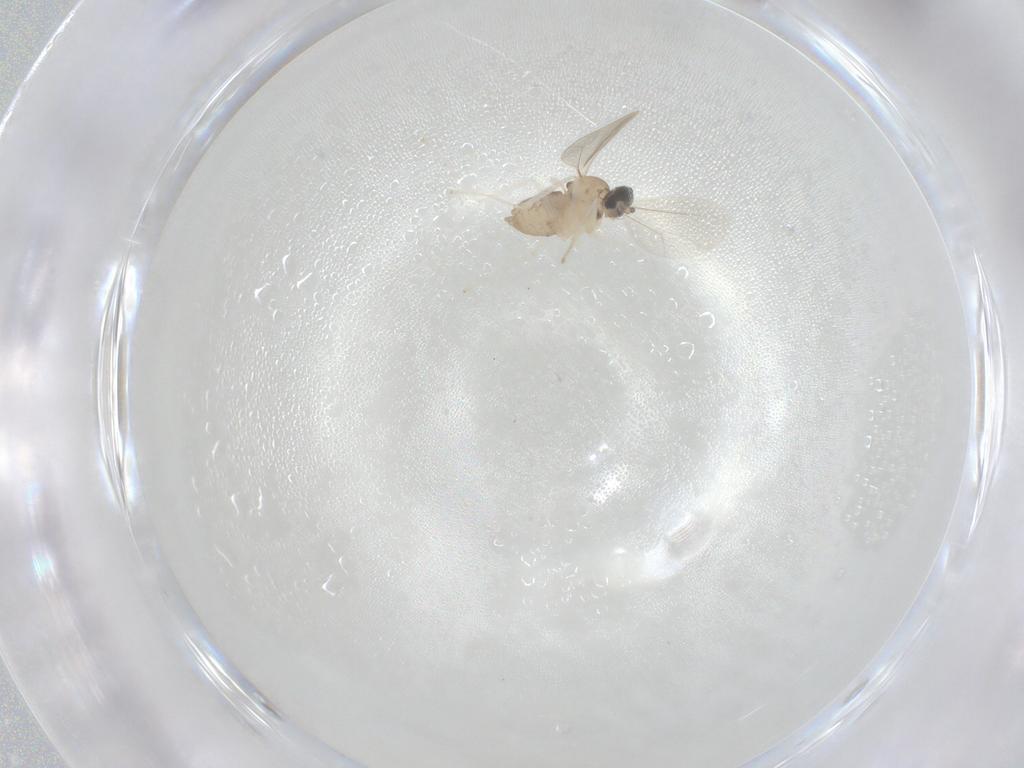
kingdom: Animalia
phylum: Arthropoda
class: Insecta
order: Diptera
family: Cecidomyiidae
